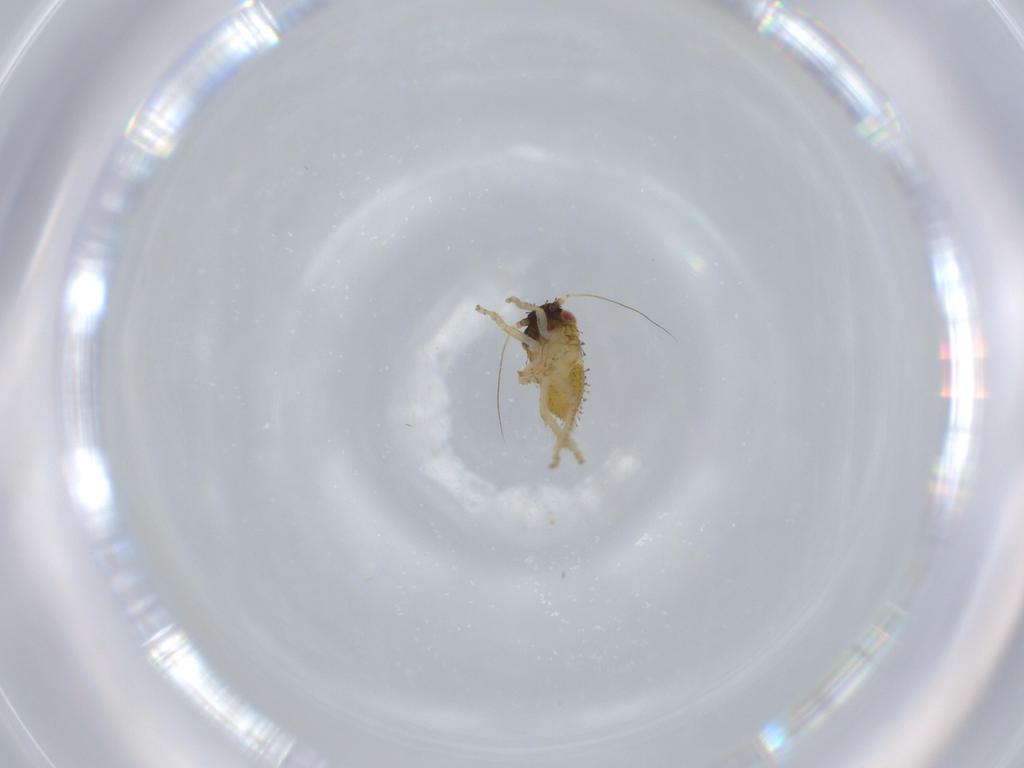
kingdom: Animalia
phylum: Arthropoda
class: Insecta
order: Hemiptera
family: Cicadellidae
